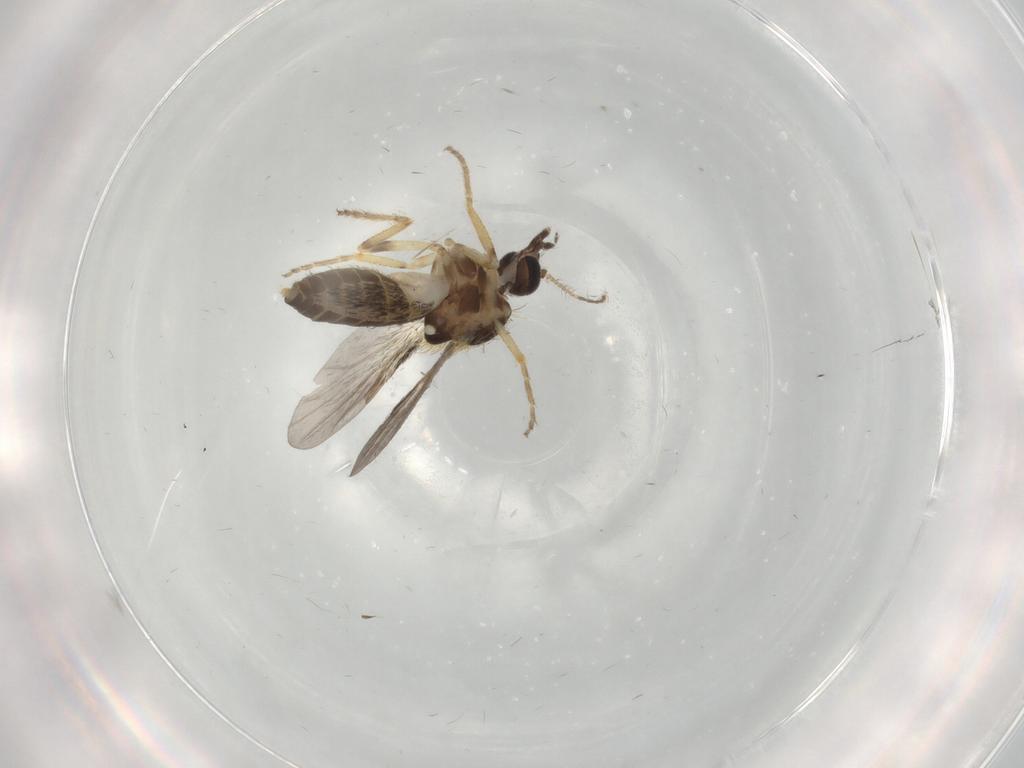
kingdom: Animalia
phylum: Arthropoda
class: Insecta
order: Diptera
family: Ceratopogonidae
